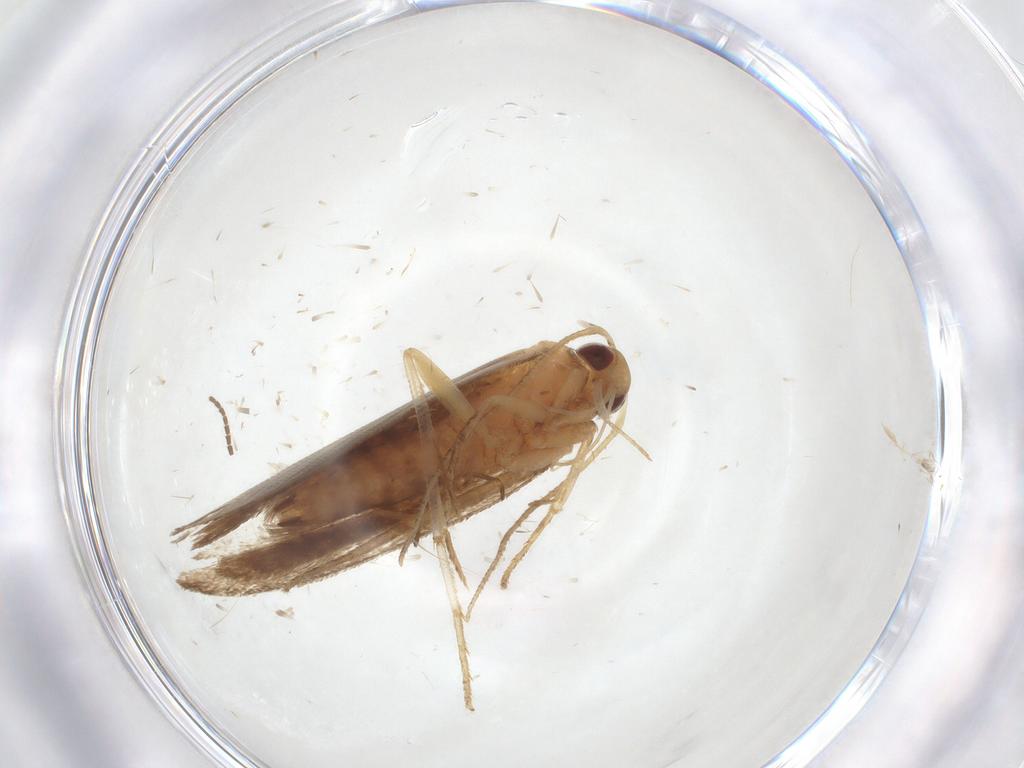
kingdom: Animalia
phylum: Arthropoda
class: Insecta
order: Lepidoptera
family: Gelechiidae
